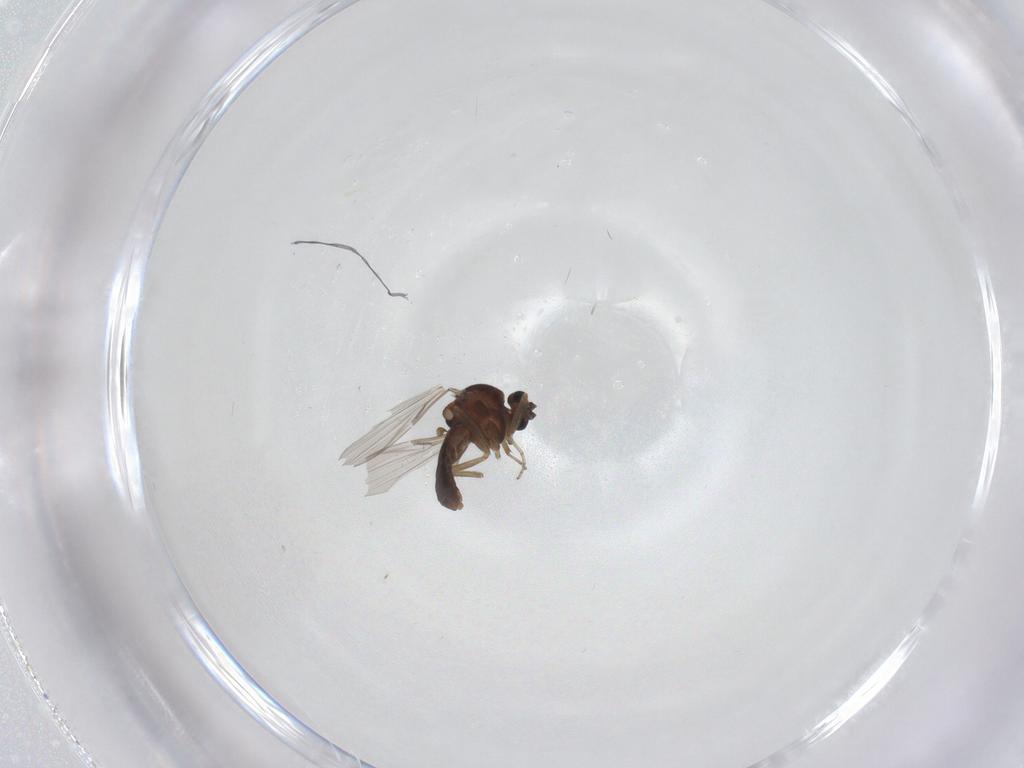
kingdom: Animalia
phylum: Arthropoda
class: Insecta
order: Diptera
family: Ceratopogonidae
